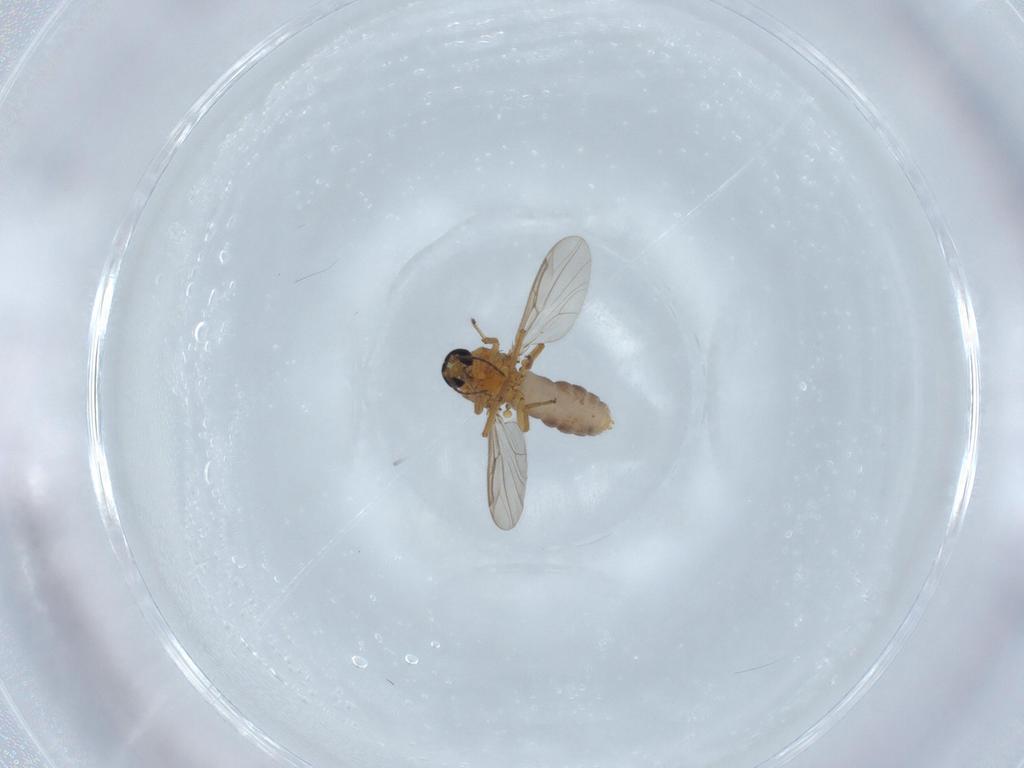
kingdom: Animalia
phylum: Arthropoda
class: Insecta
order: Diptera
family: Ceratopogonidae
